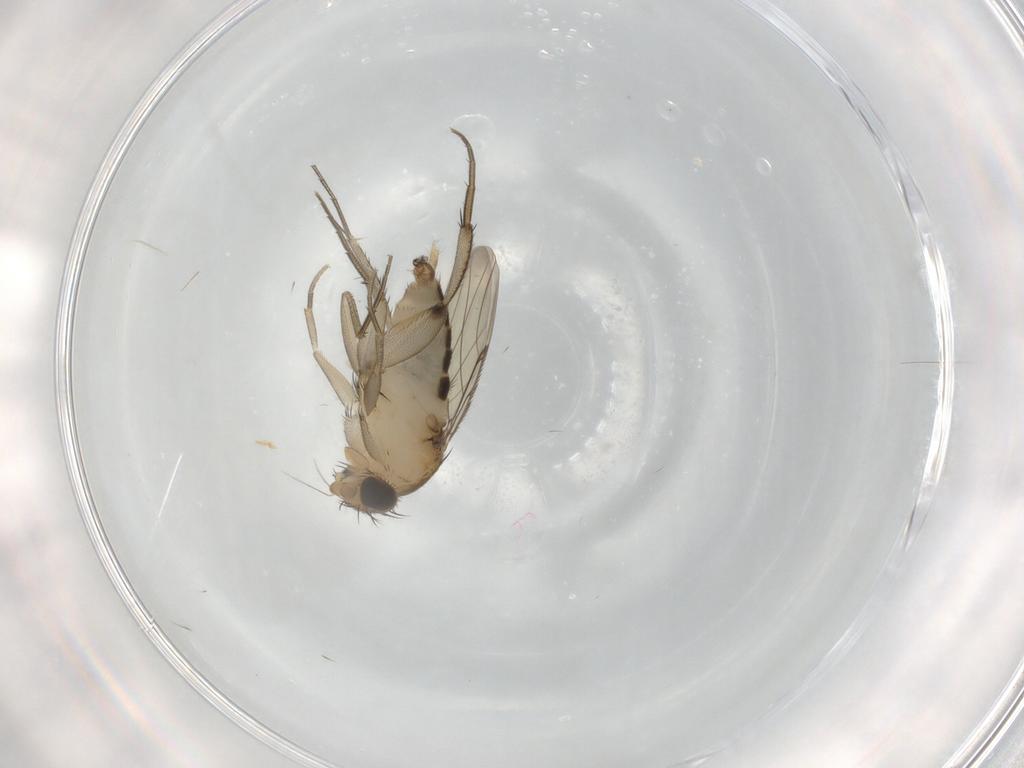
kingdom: Animalia
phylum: Arthropoda
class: Insecta
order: Diptera
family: Phoridae
